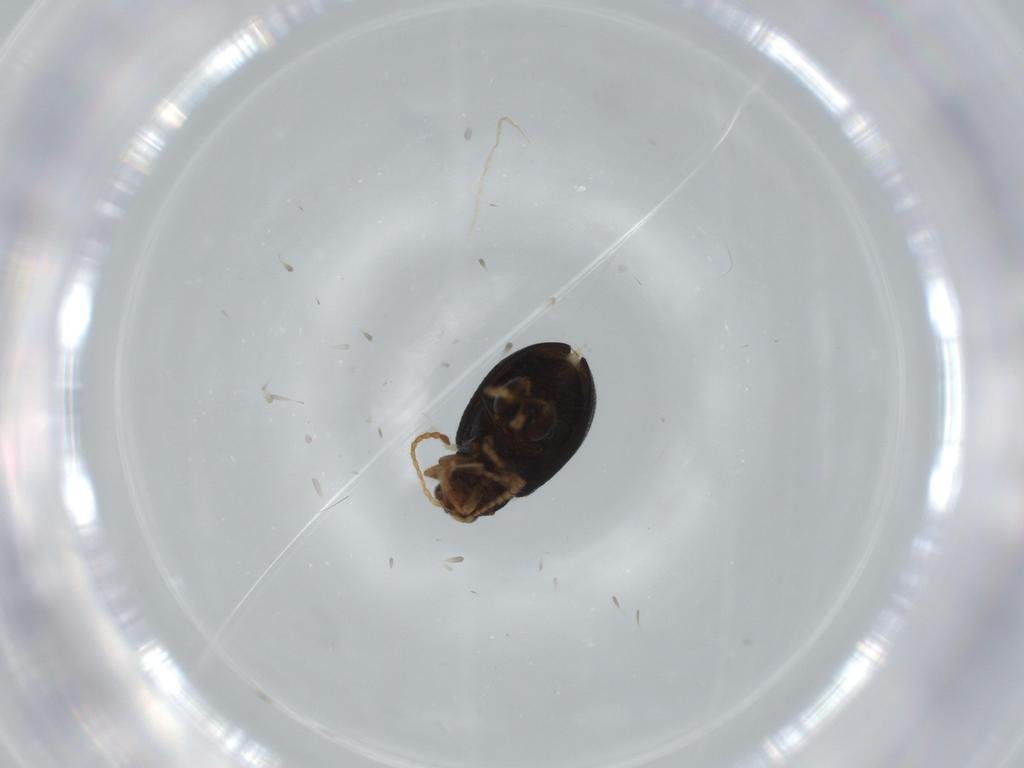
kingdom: Animalia
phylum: Arthropoda
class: Insecta
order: Coleoptera
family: Chrysomelidae
